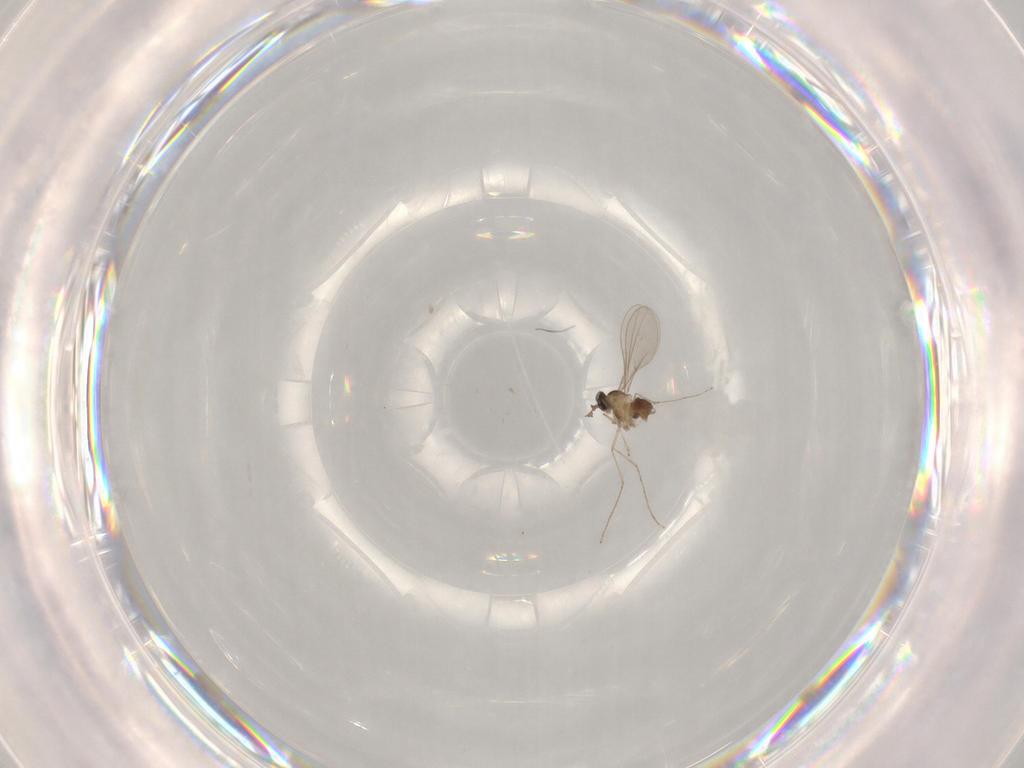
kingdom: Animalia
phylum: Arthropoda
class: Insecta
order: Diptera
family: Cecidomyiidae
